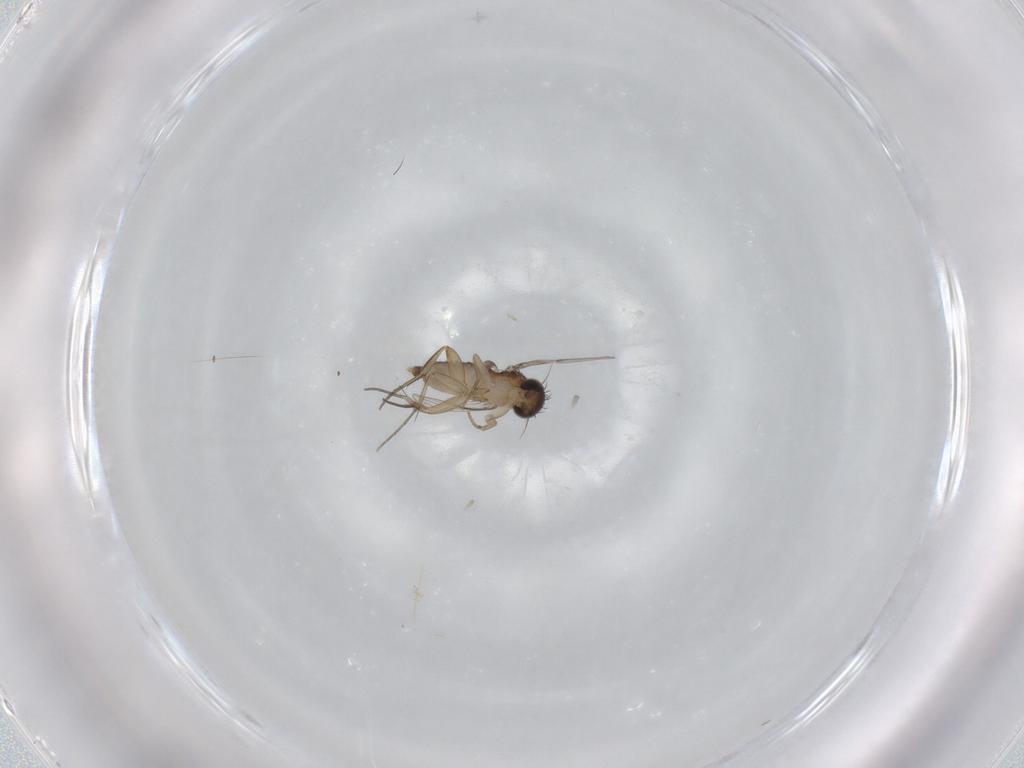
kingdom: Animalia
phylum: Arthropoda
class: Insecta
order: Diptera
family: Phoridae
